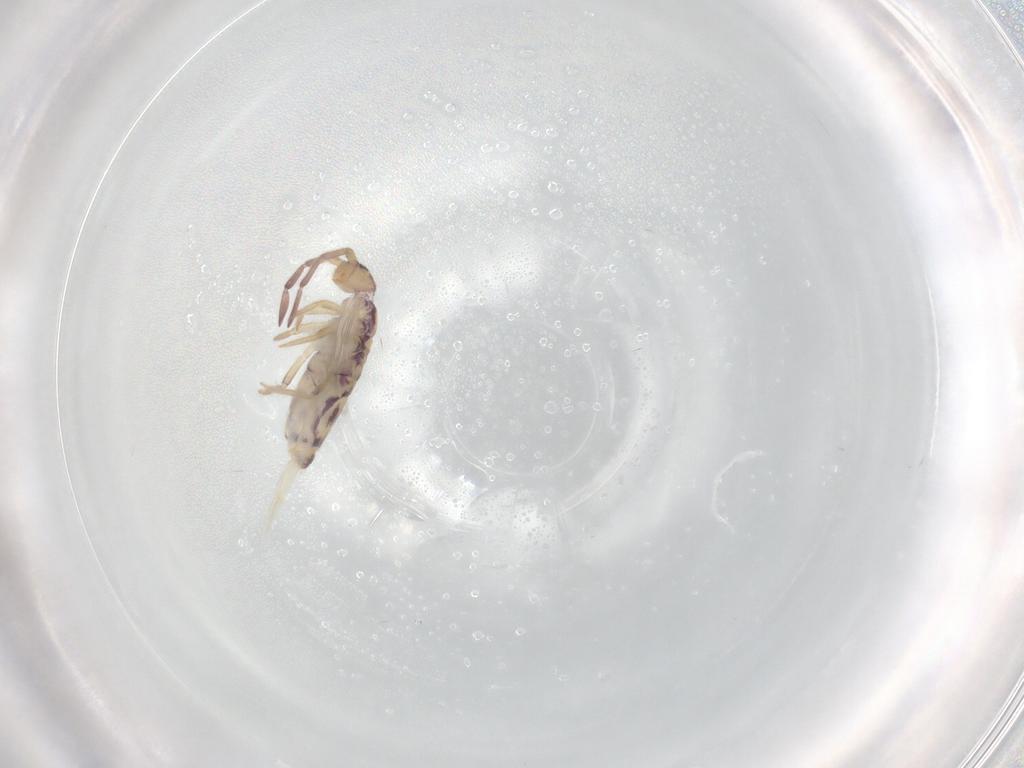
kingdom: Animalia
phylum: Arthropoda
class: Collembola
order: Entomobryomorpha
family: Entomobryidae
